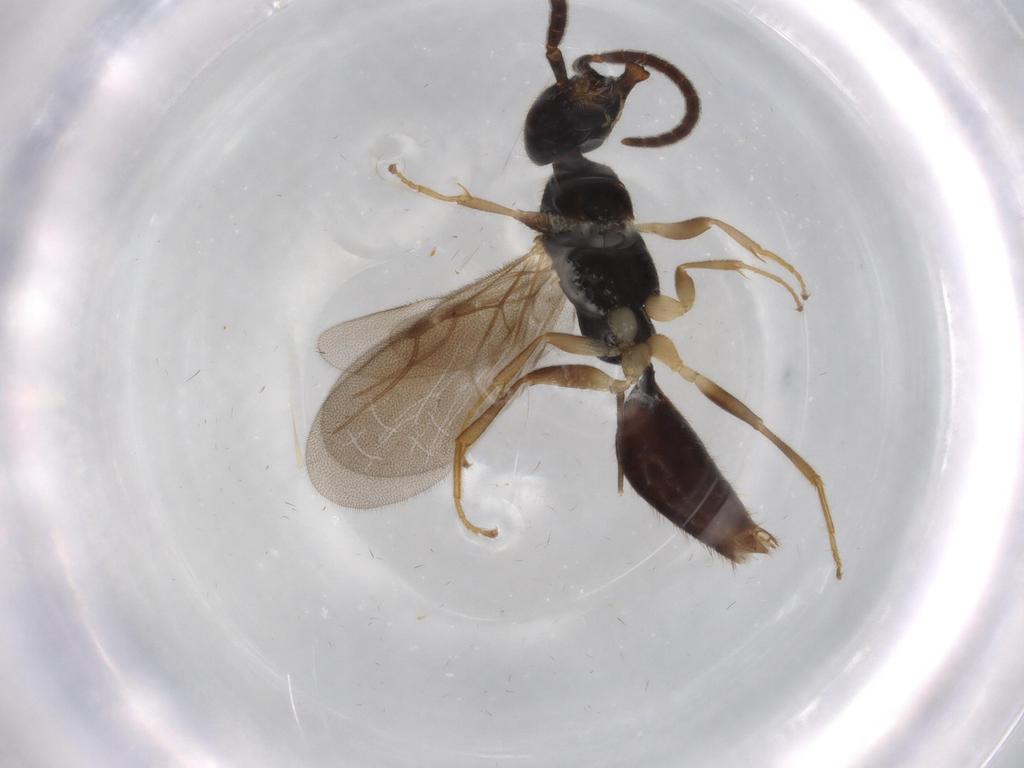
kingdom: Animalia
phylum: Arthropoda
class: Insecta
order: Hymenoptera
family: Bethylidae
